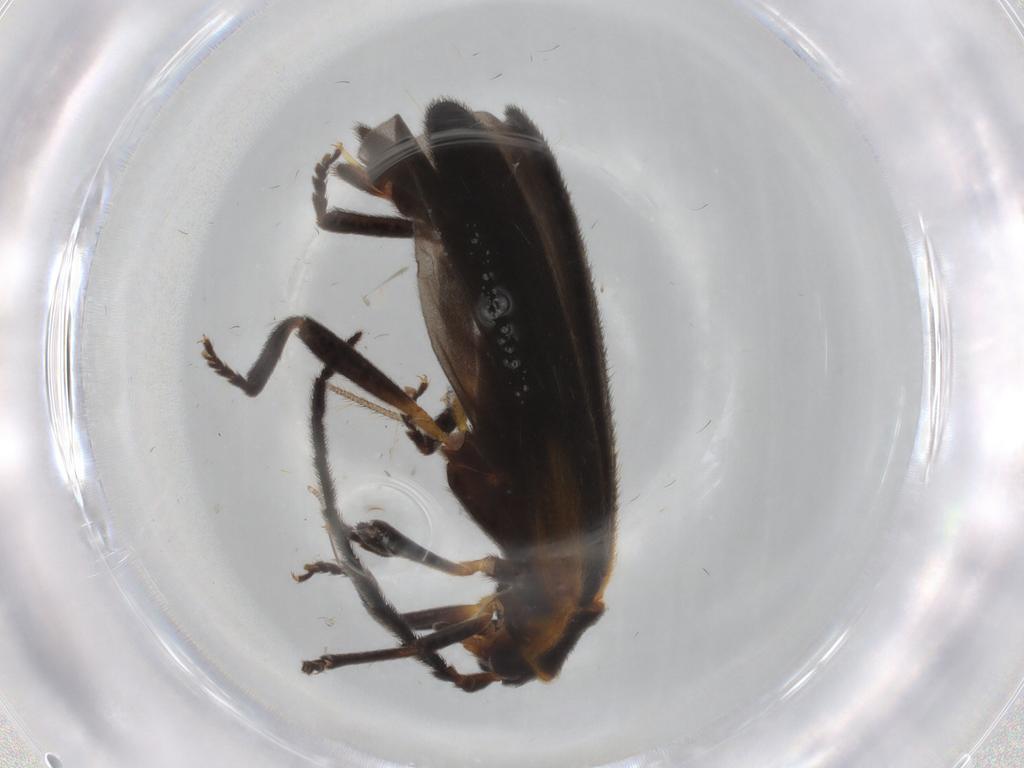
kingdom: Animalia
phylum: Arthropoda
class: Insecta
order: Coleoptera
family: Lycidae
